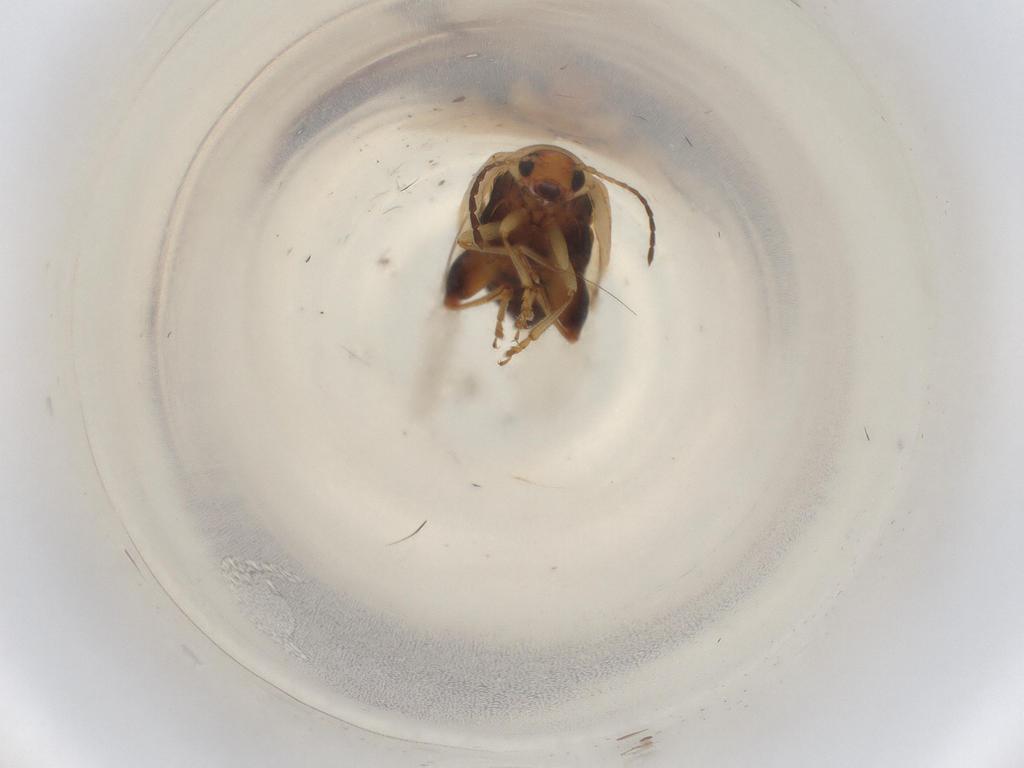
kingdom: Animalia
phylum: Arthropoda
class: Insecta
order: Coleoptera
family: Chrysomelidae
